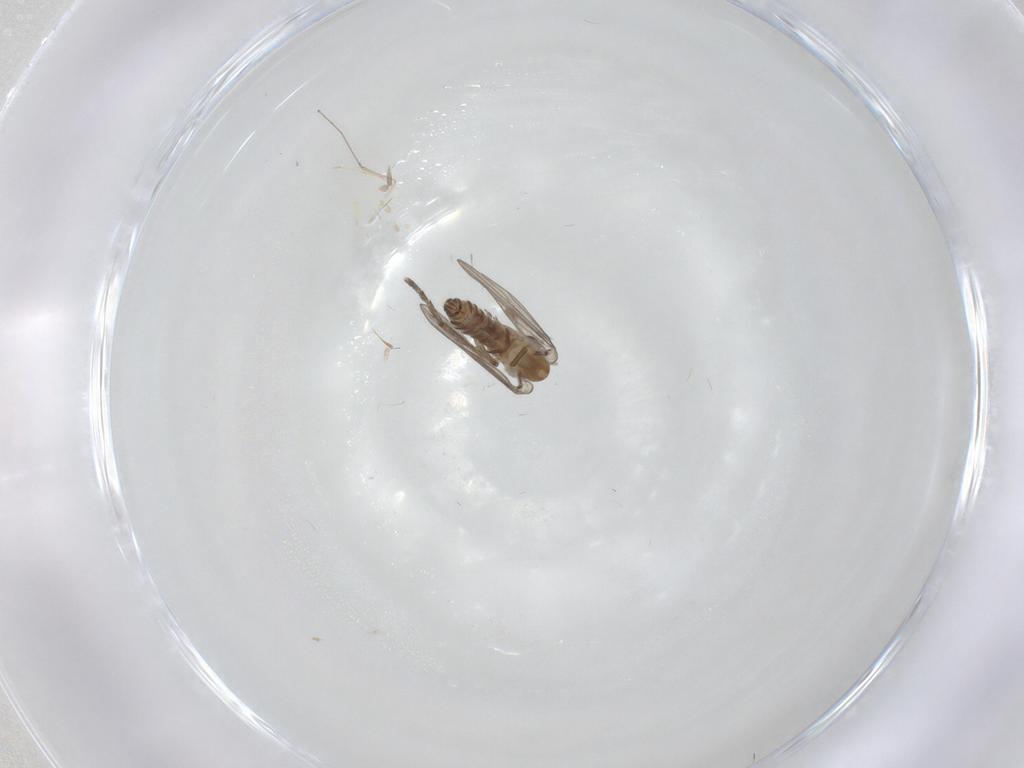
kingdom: Animalia
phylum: Arthropoda
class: Insecta
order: Diptera
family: Cecidomyiidae
